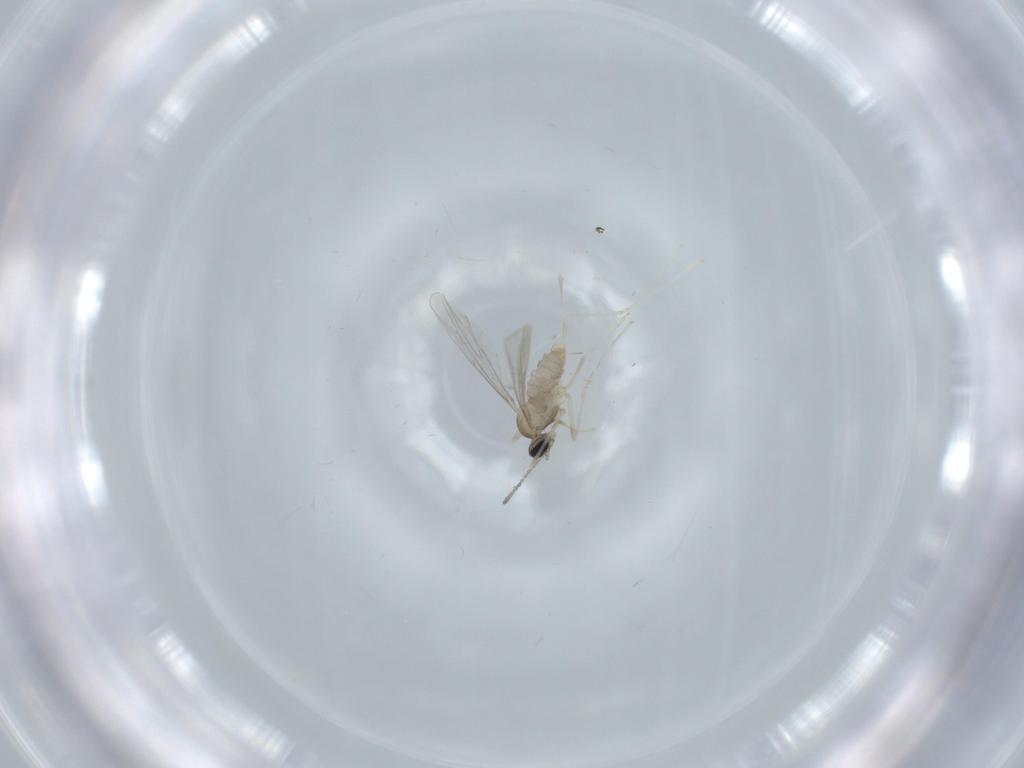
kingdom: Animalia
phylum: Arthropoda
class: Insecta
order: Diptera
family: Cecidomyiidae
